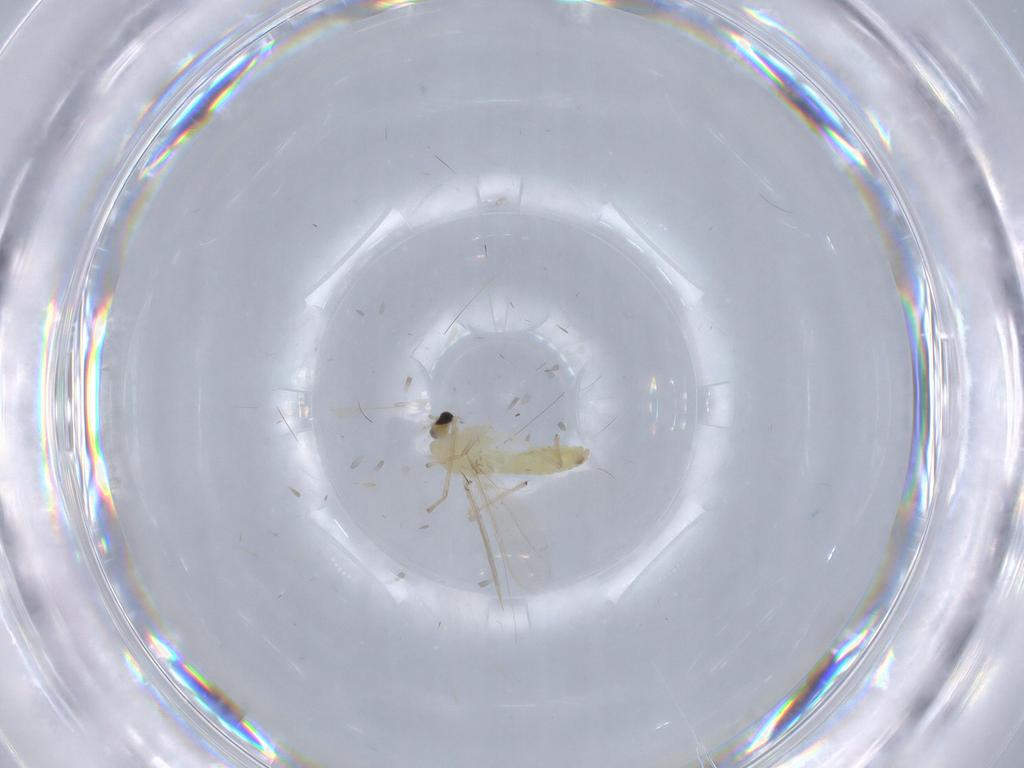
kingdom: Animalia
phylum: Arthropoda
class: Insecta
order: Diptera
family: Chironomidae
